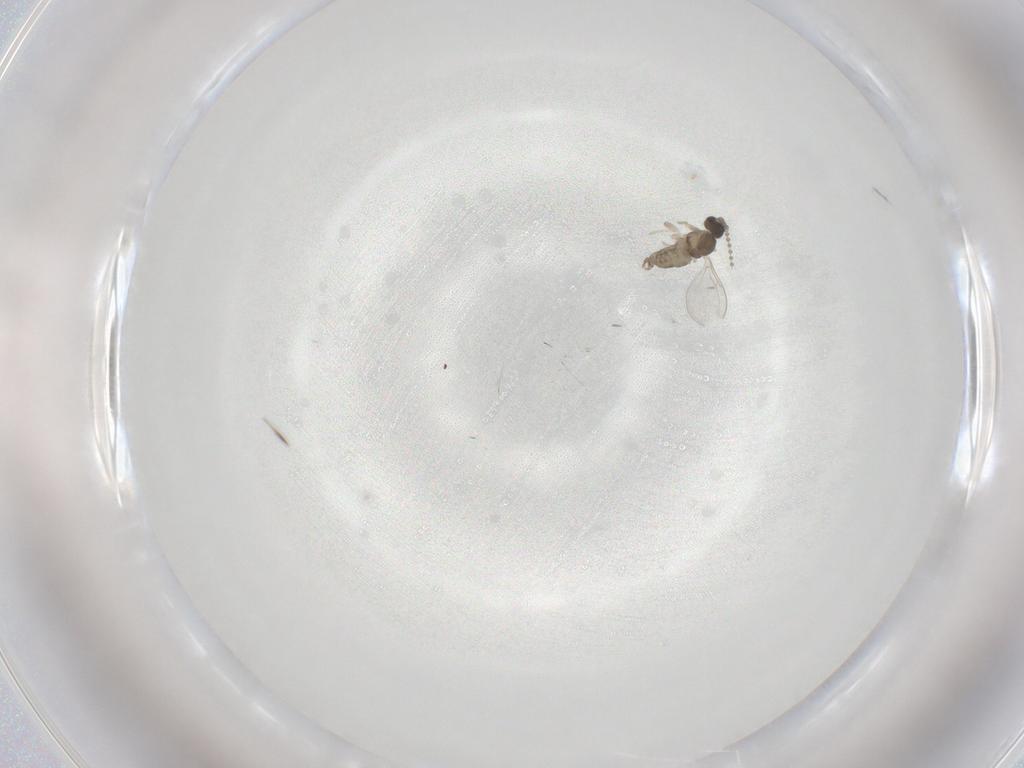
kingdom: Animalia
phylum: Arthropoda
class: Insecta
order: Diptera
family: Cecidomyiidae
